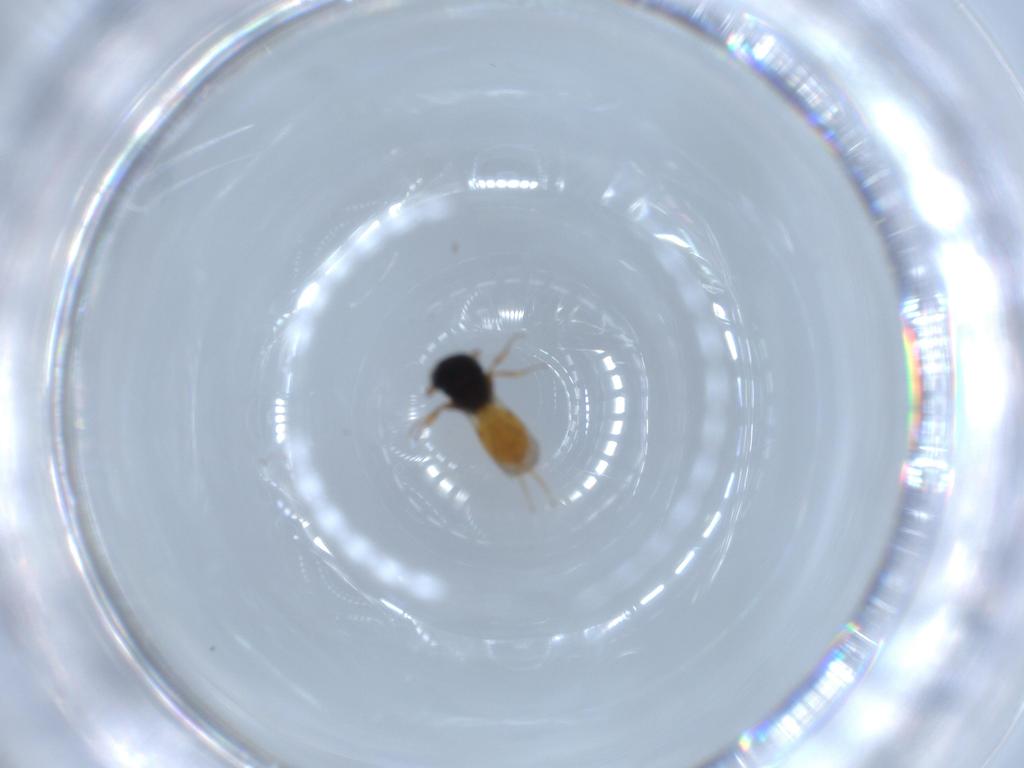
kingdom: Animalia
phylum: Arthropoda
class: Insecta
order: Hymenoptera
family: Scelionidae
